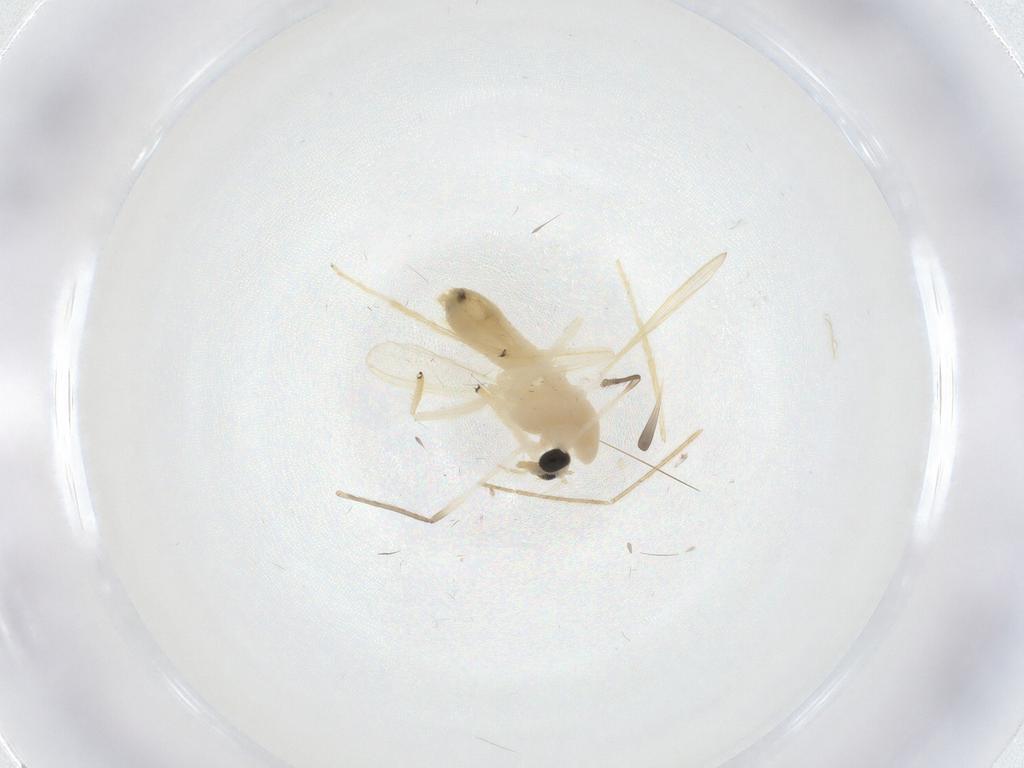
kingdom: Animalia
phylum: Arthropoda
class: Insecta
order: Diptera
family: Chironomidae
